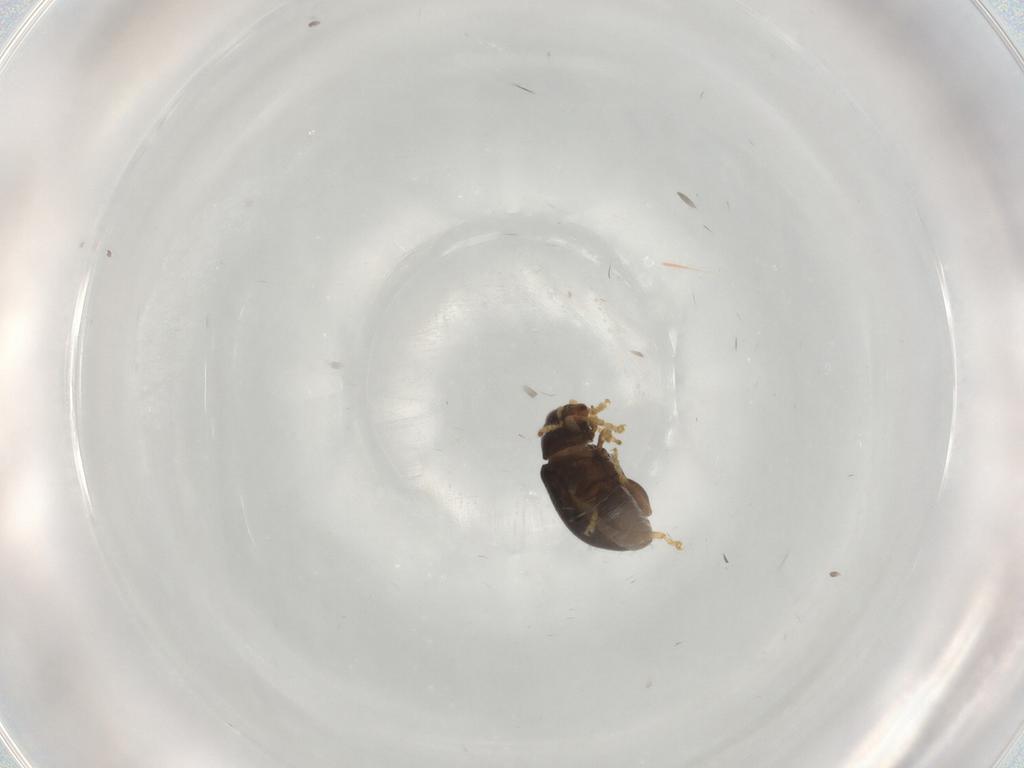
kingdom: Animalia
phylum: Arthropoda
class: Insecta
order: Coleoptera
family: Chrysomelidae
